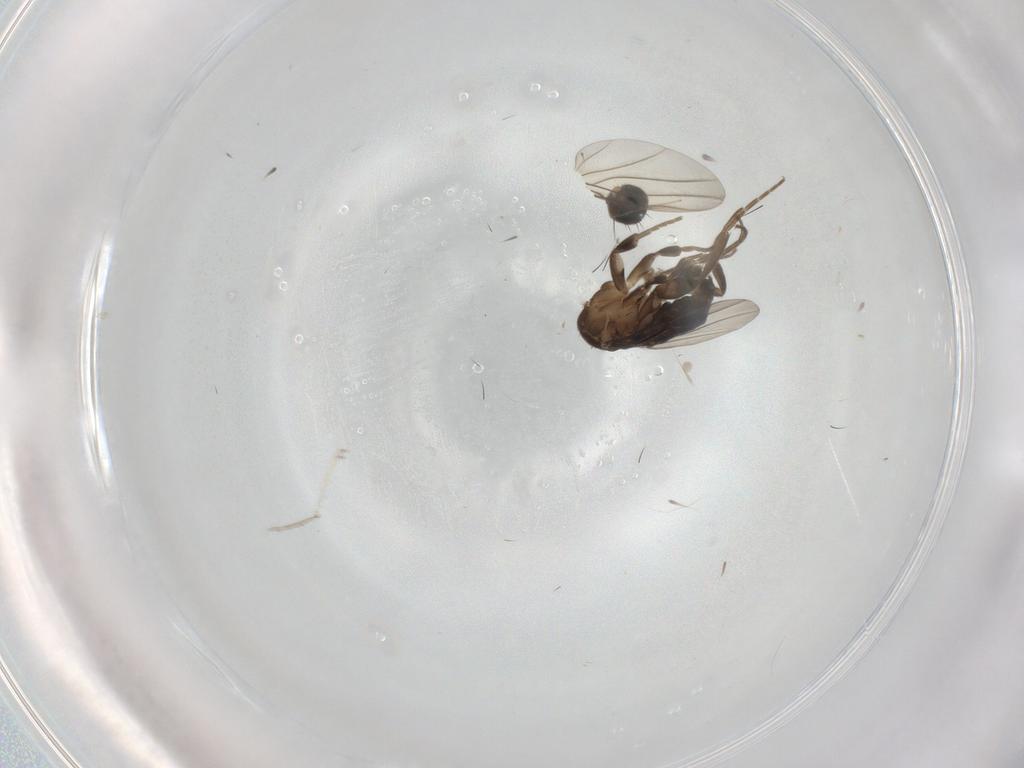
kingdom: Animalia
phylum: Arthropoda
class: Insecta
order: Diptera
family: Phoridae
